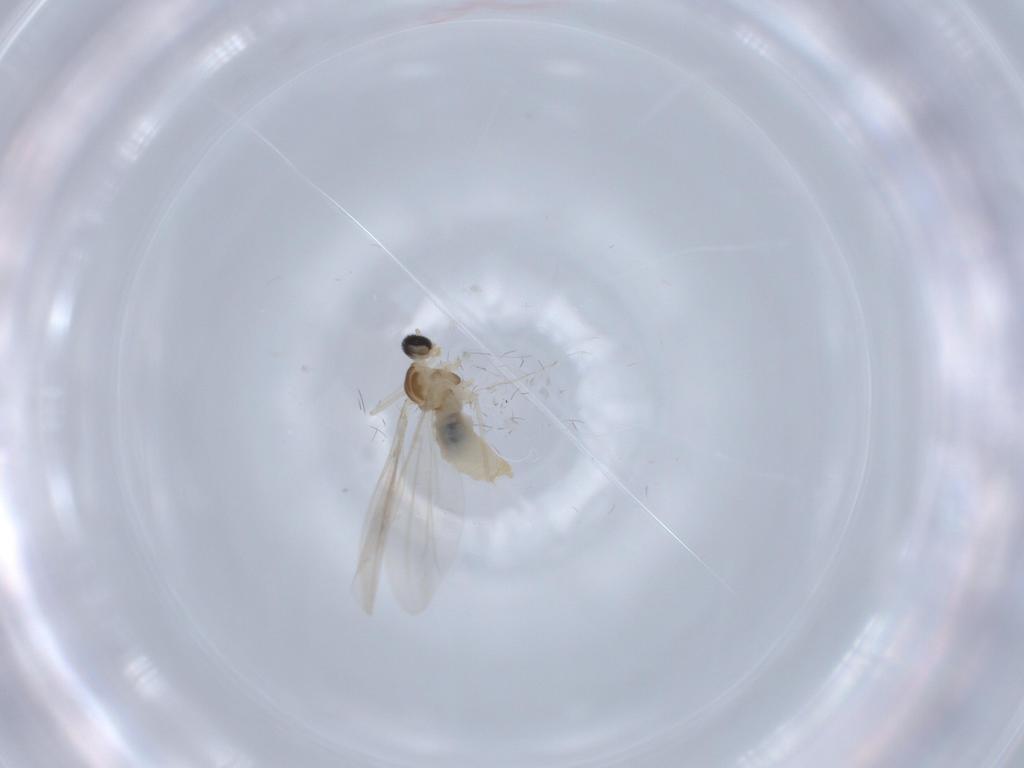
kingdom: Animalia
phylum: Arthropoda
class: Insecta
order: Diptera
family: Cecidomyiidae
